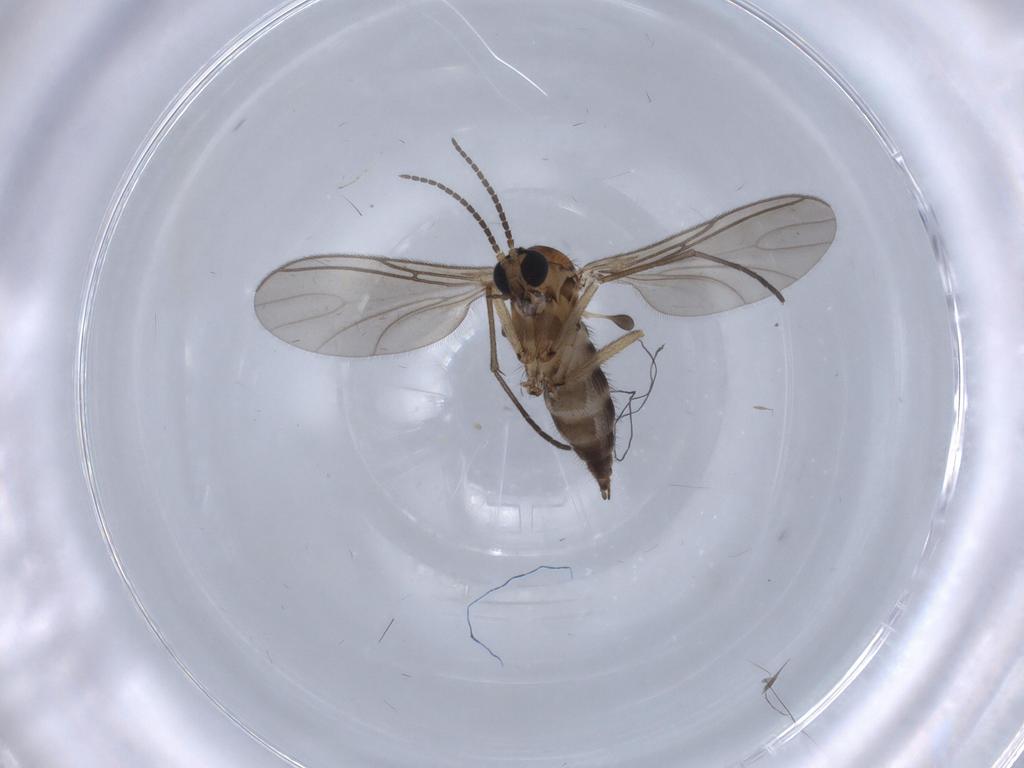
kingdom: Animalia
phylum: Arthropoda
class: Insecta
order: Diptera
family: Sciaridae
